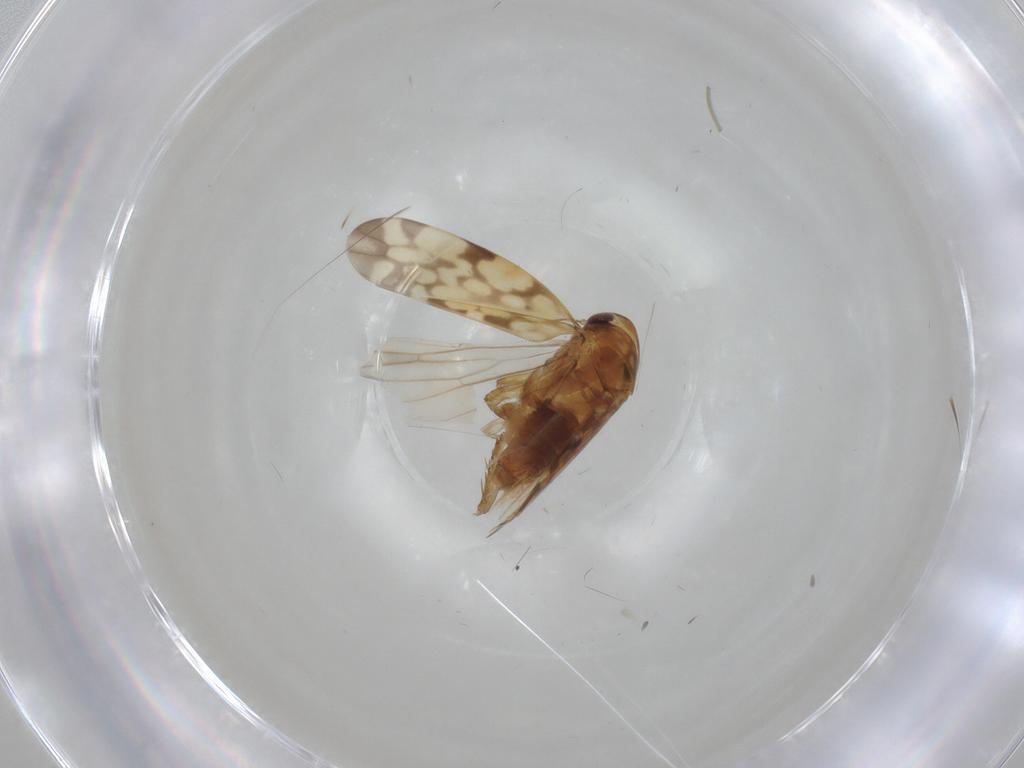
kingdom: Animalia
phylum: Arthropoda
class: Insecta
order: Hemiptera
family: Cicadellidae
